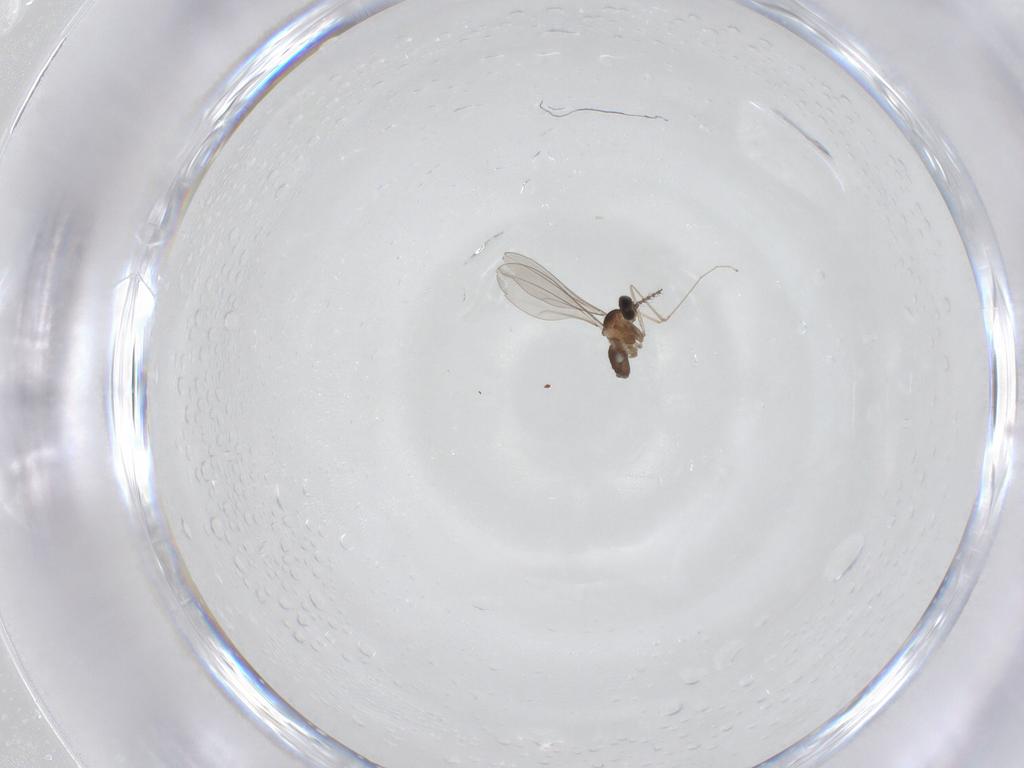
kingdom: Animalia
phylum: Arthropoda
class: Insecta
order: Diptera
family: Cecidomyiidae
